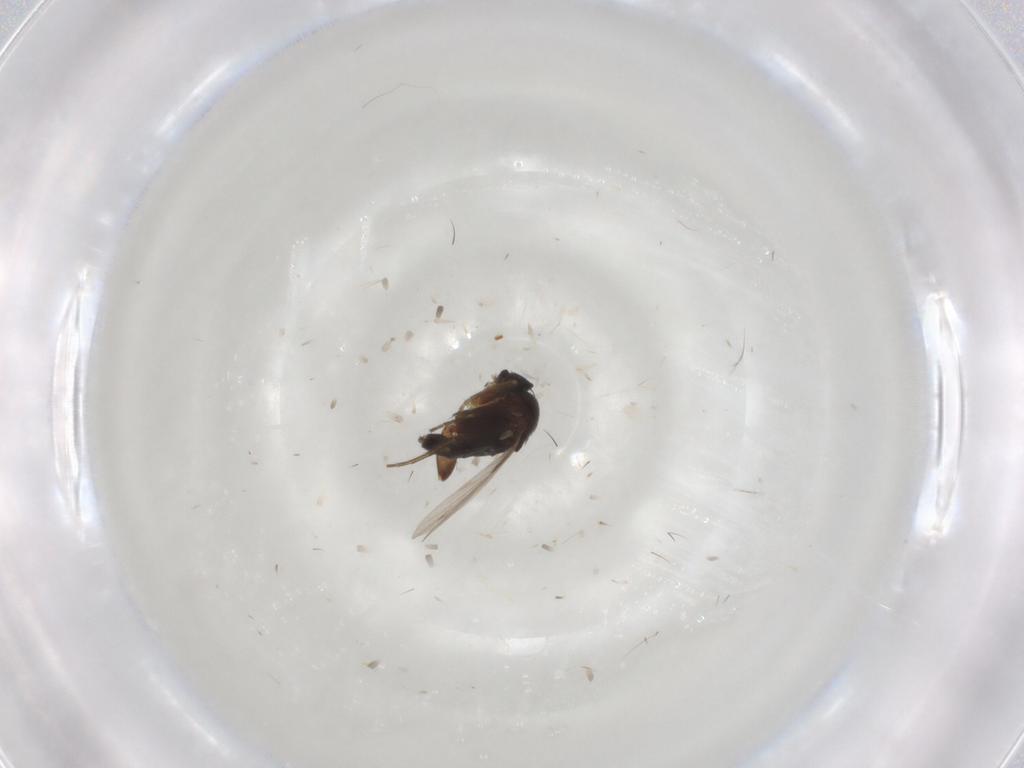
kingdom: Animalia
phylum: Arthropoda
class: Insecta
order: Diptera
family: Phoridae
